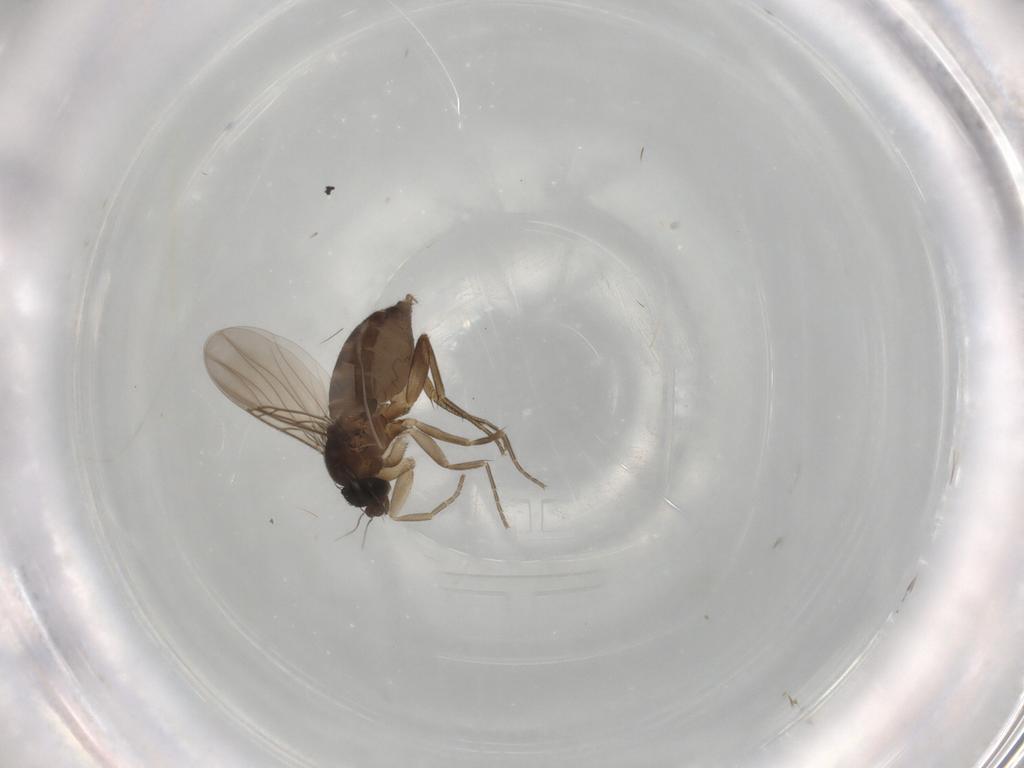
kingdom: Animalia
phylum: Arthropoda
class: Insecta
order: Diptera
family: Phoridae
